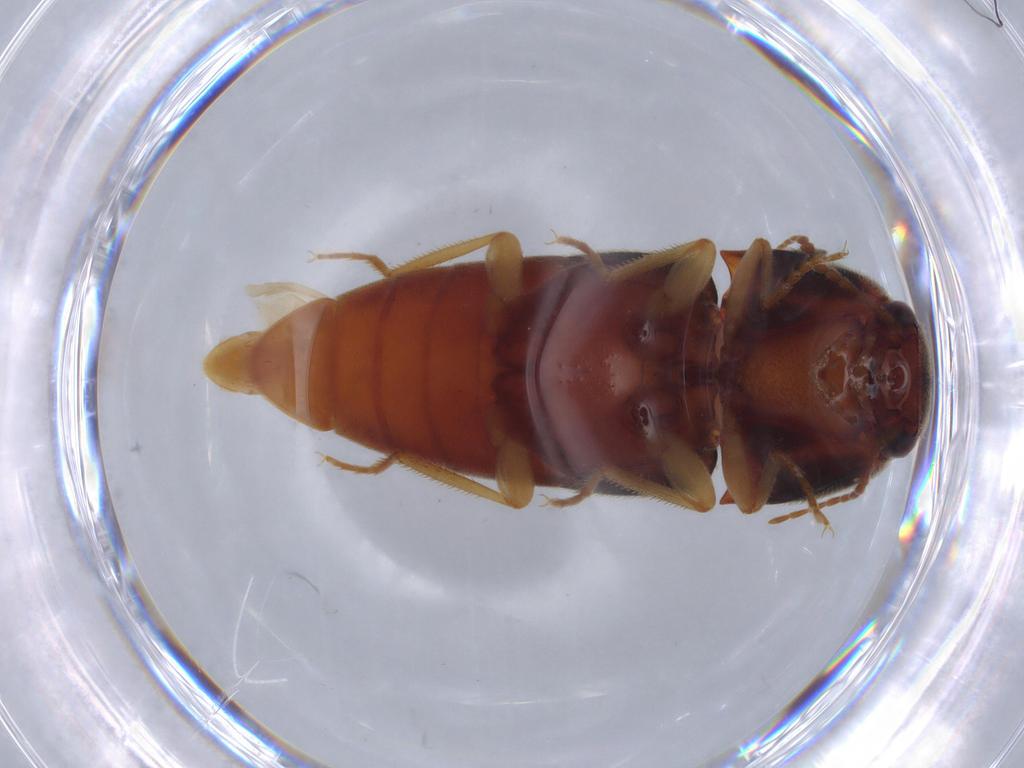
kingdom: Animalia
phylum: Arthropoda
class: Insecta
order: Coleoptera
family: Elateridae
